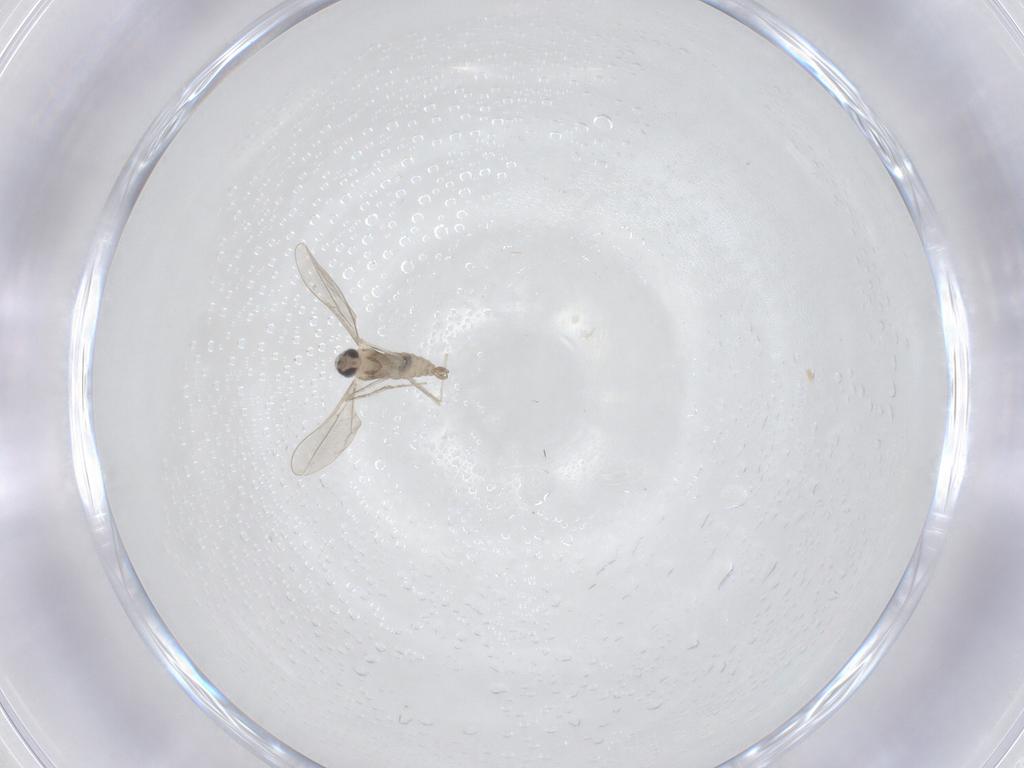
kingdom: Animalia
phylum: Arthropoda
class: Insecta
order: Diptera
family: Cecidomyiidae
